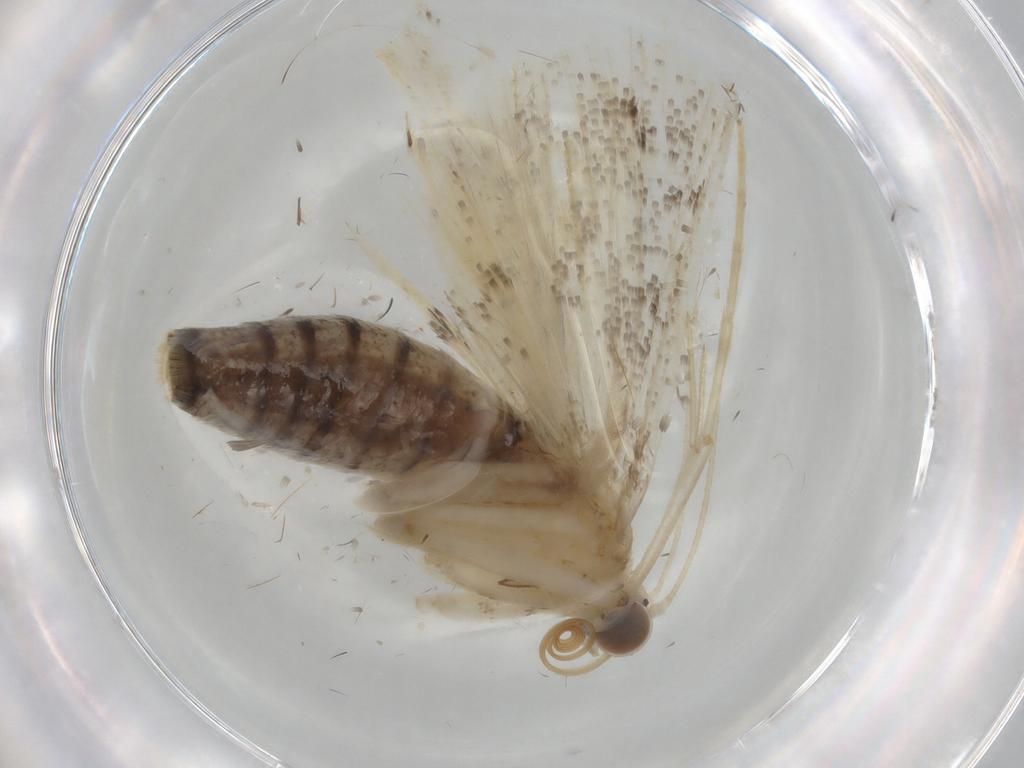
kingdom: Animalia
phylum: Arthropoda
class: Insecta
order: Lepidoptera
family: Crambidae
